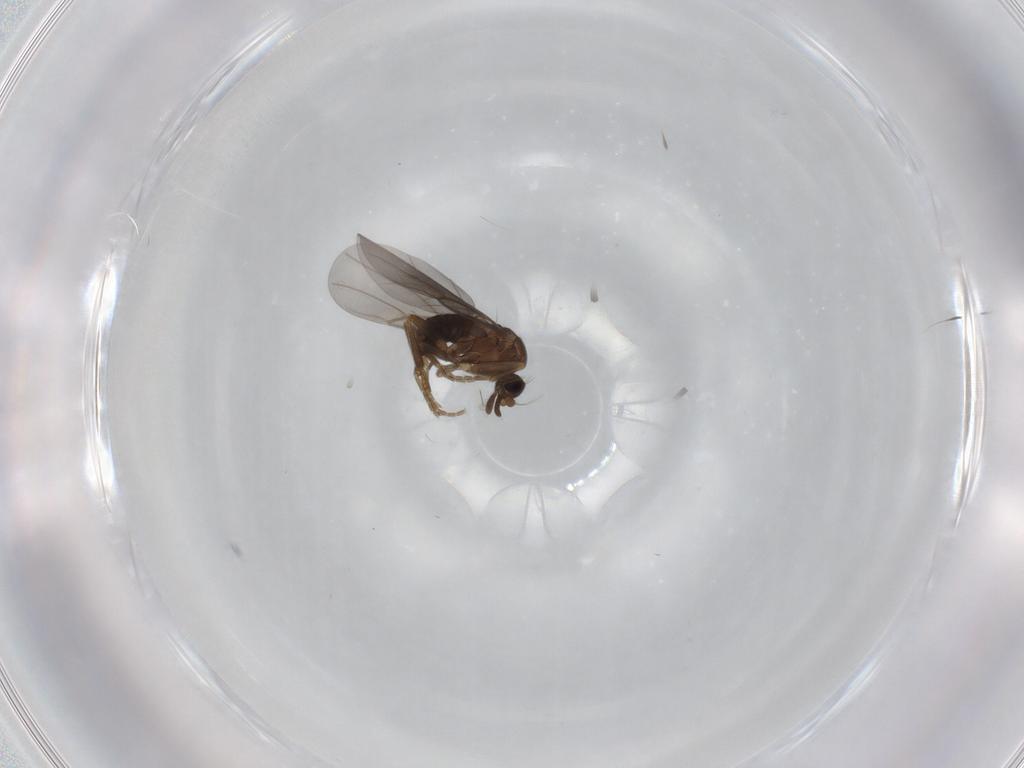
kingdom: Animalia
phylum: Arthropoda
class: Insecta
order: Diptera
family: Phoridae
